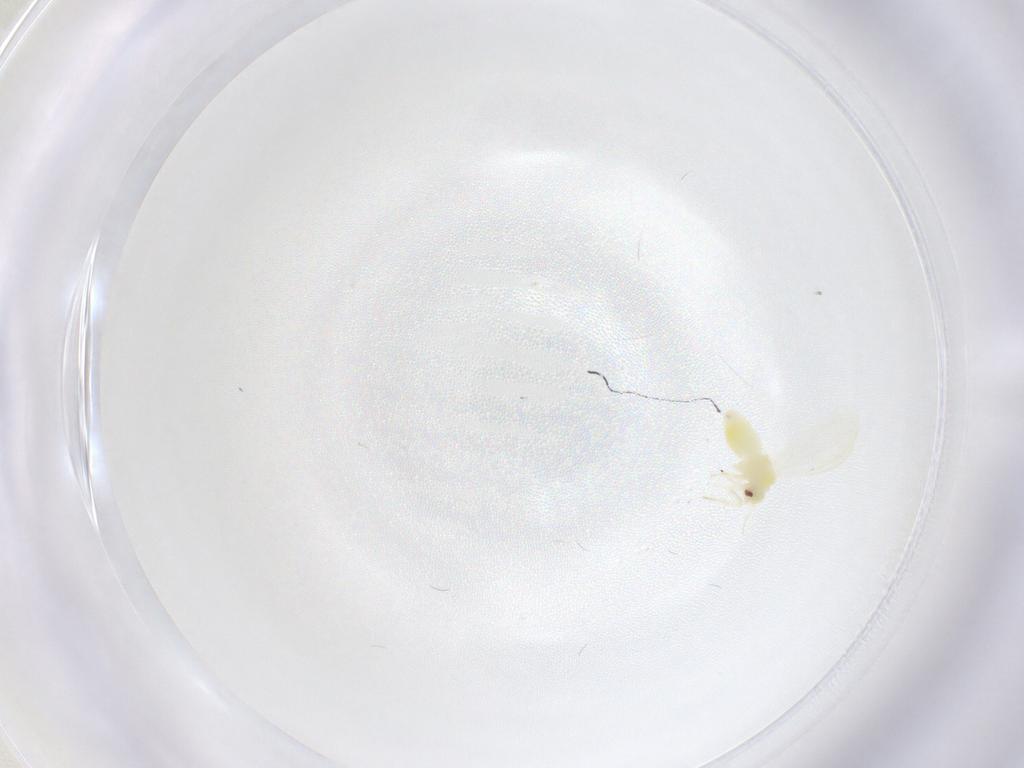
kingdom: Animalia
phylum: Arthropoda
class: Insecta
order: Hemiptera
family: Aleyrodidae
